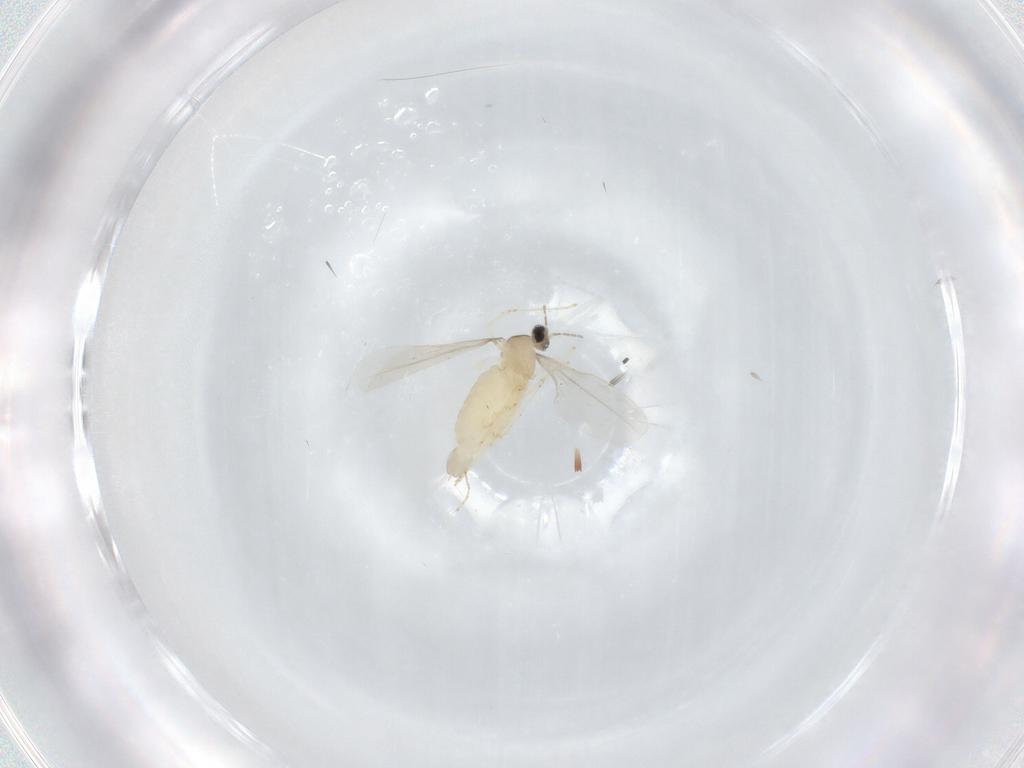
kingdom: Animalia
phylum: Arthropoda
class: Insecta
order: Diptera
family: Cecidomyiidae
